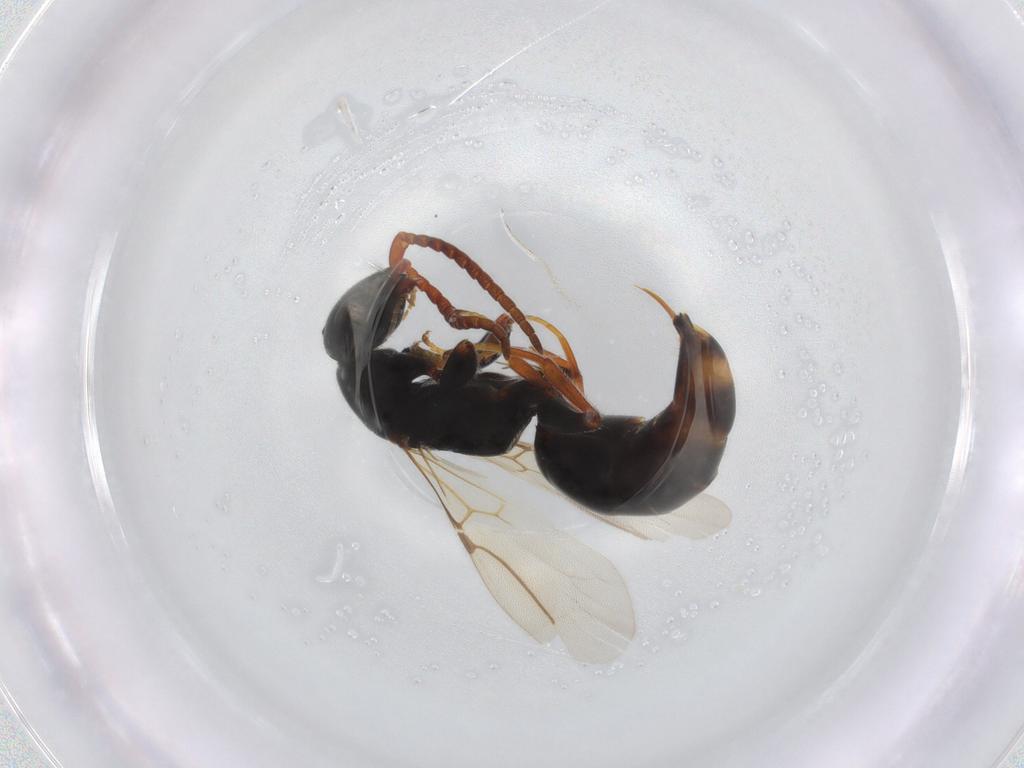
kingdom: Animalia
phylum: Arthropoda
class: Insecta
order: Hymenoptera
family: Bethylidae
